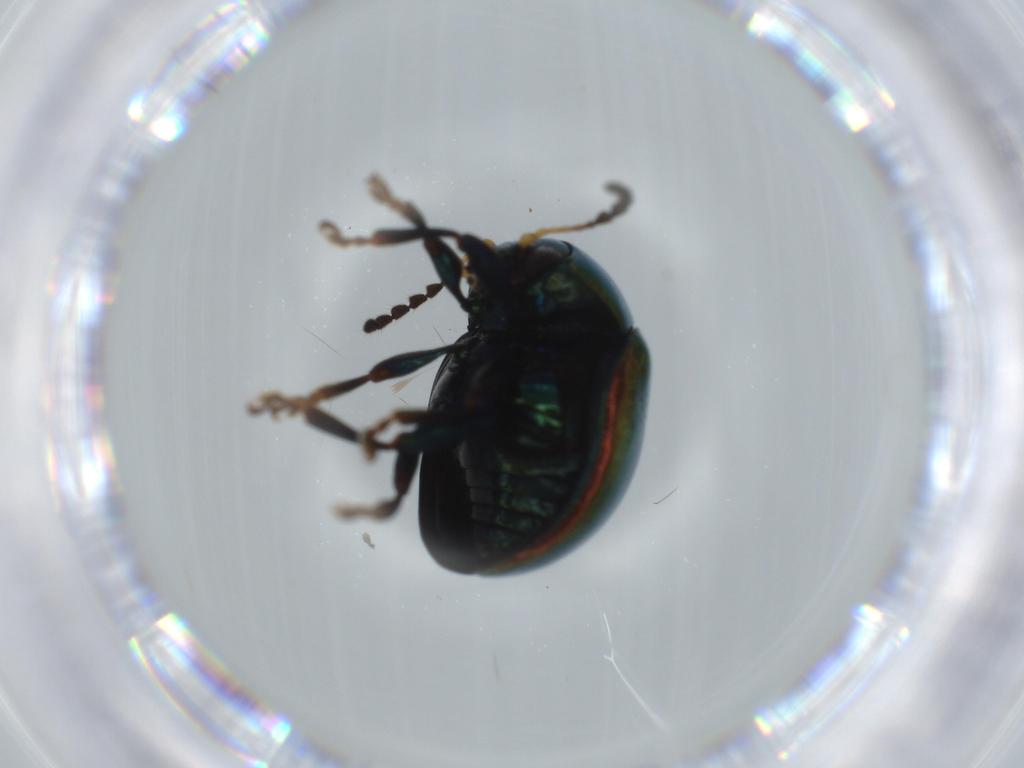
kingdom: Animalia
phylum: Arthropoda
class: Insecta
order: Coleoptera
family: Chrysomelidae
